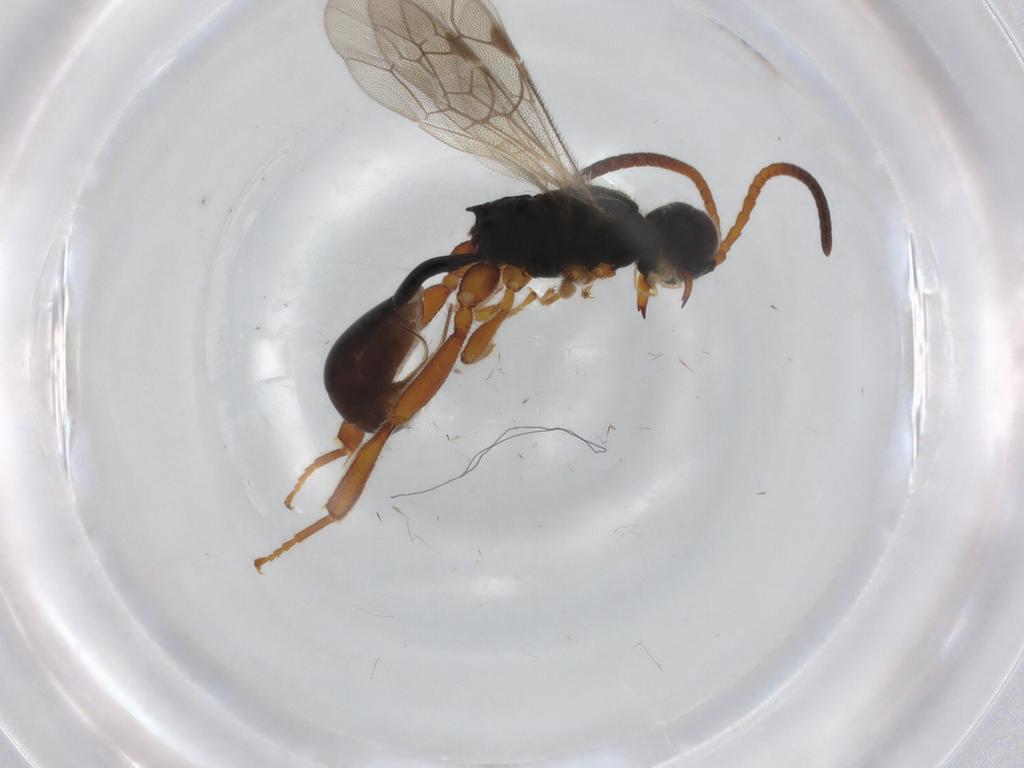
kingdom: Animalia
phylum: Arthropoda
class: Insecta
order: Hymenoptera
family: Ichneumonidae
